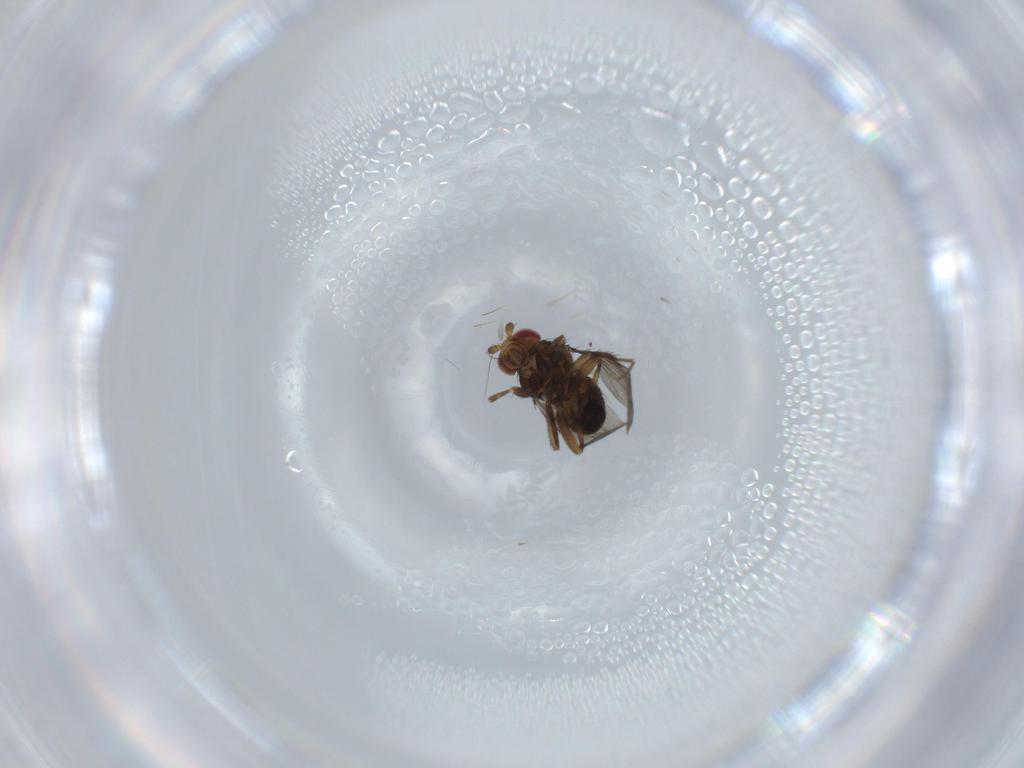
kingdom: Animalia
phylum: Arthropoda
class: Insecta
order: Diptera
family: Sphaeroceridae
